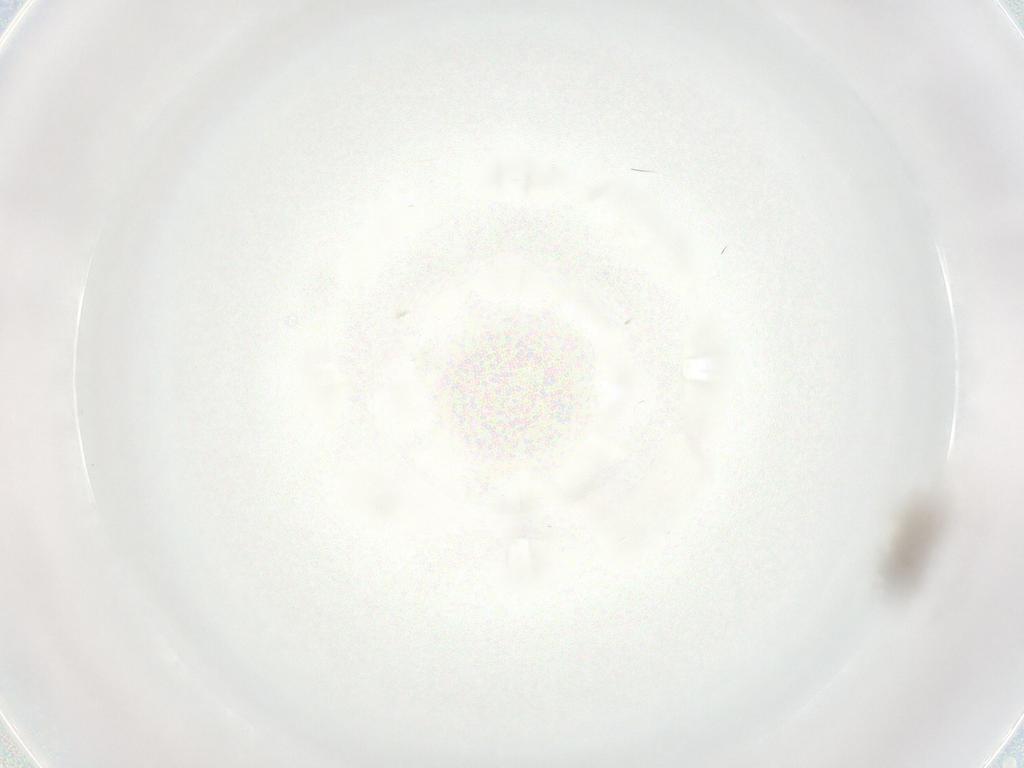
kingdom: Animalia
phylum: Arthropoda
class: Insecta
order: Diptera
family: Cecidomyiidae
